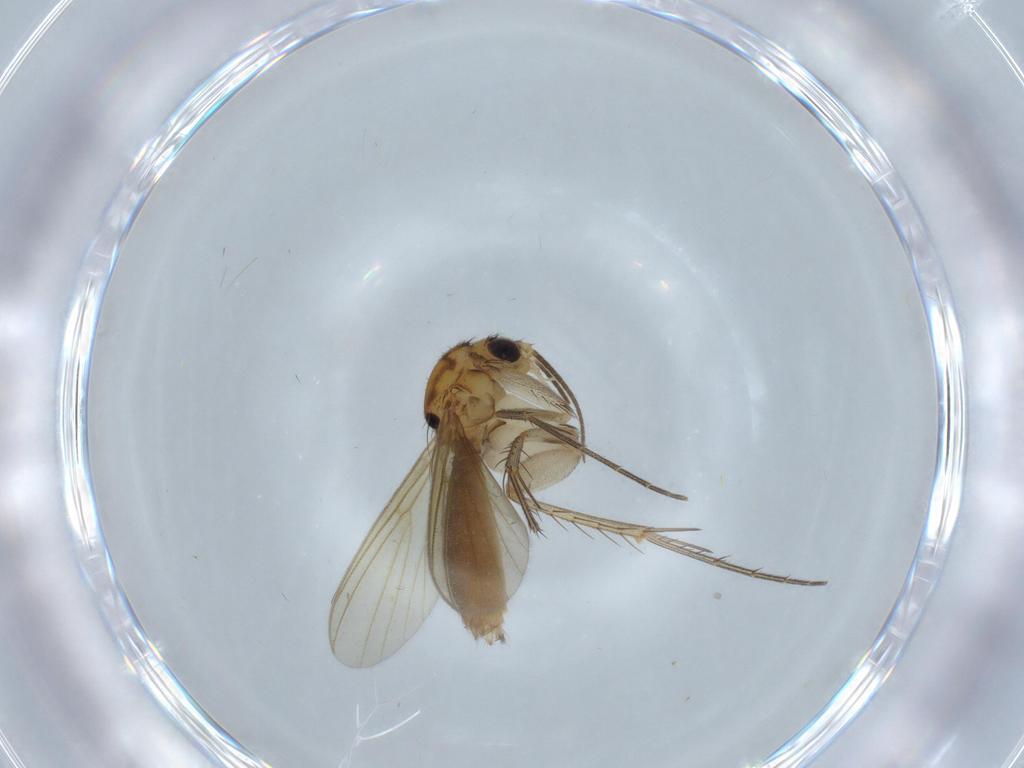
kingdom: Animalia
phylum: Arthropoda
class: Insecta
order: Diptera
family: Mycetophilidae
